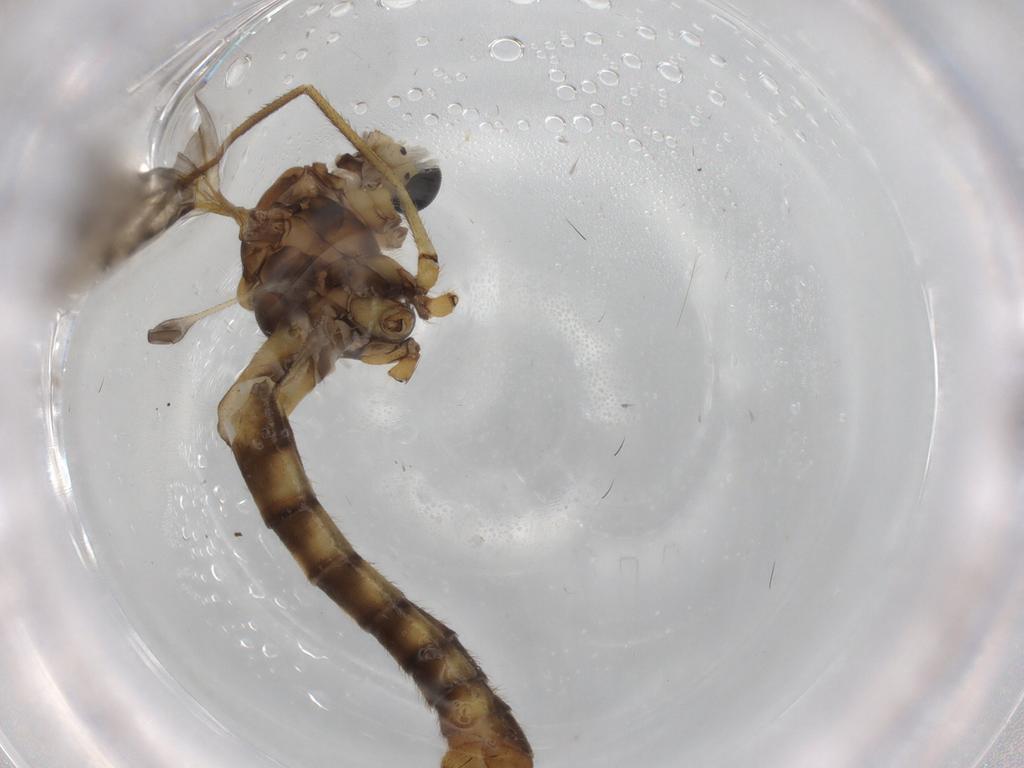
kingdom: Animalia
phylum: Arthropoda
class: Insecta
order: Diptera
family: Tipulidae
